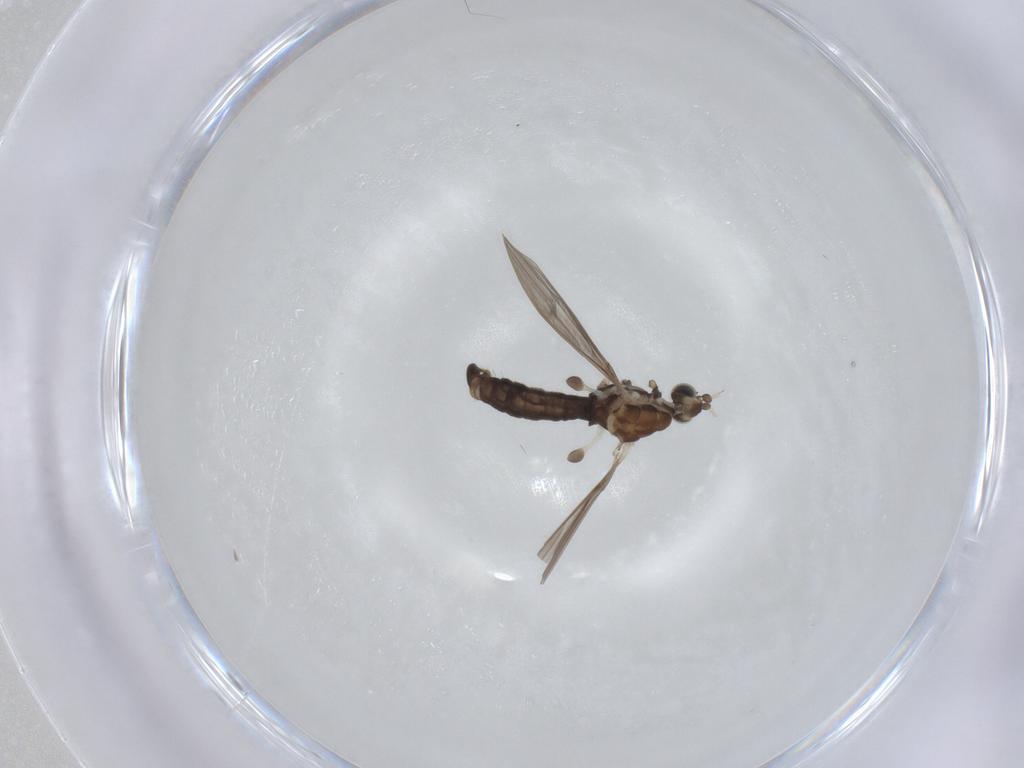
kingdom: Animalia
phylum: Arthropoda
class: Insecta
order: Diptera
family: Limoniidae
